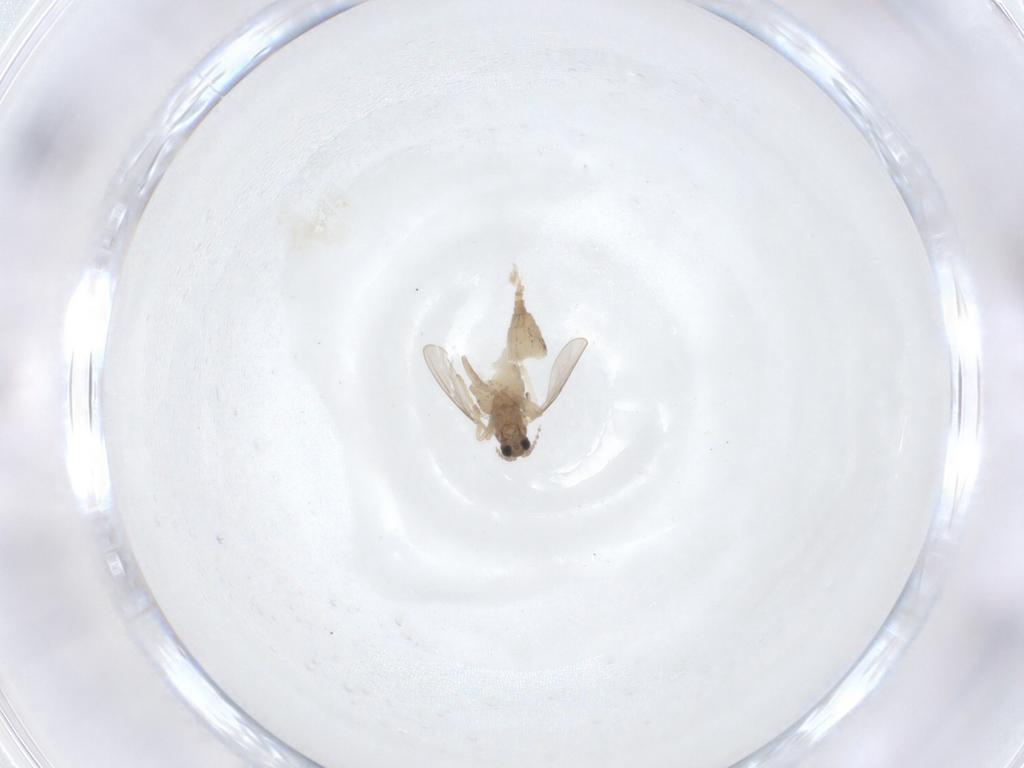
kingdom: Animalia
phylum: Arthropoda
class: Insecta
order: Diptera
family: Cecidomyiidae
